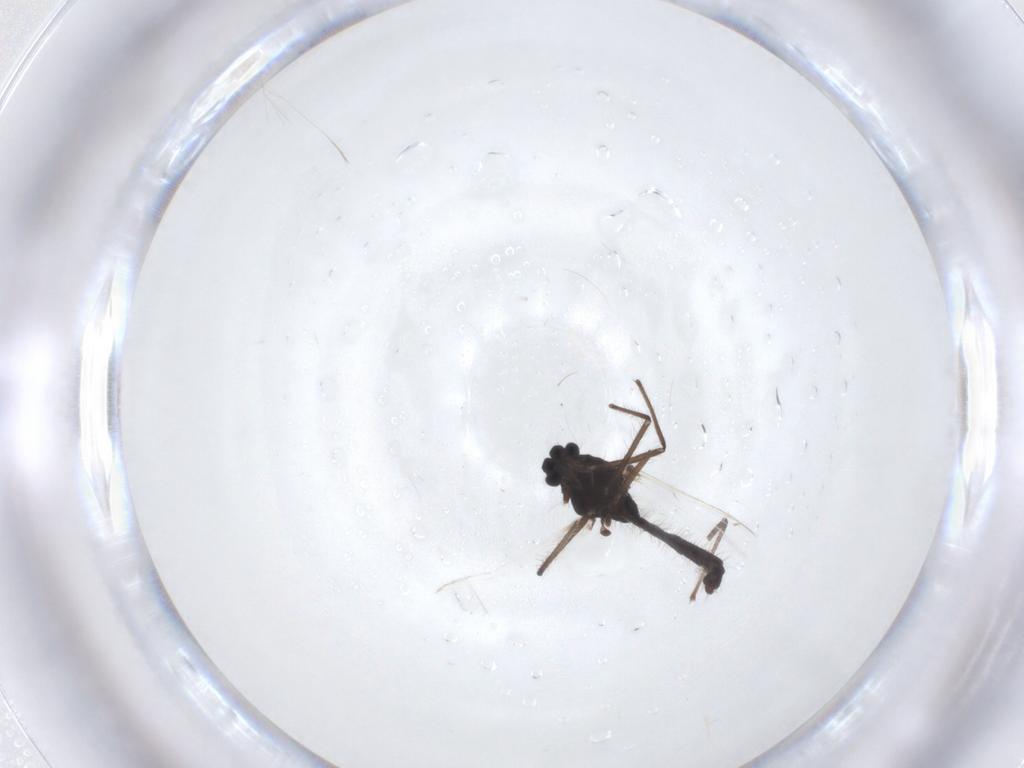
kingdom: Animalia
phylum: Arthropoda
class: Insecta
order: Diptera
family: Chironomidae
